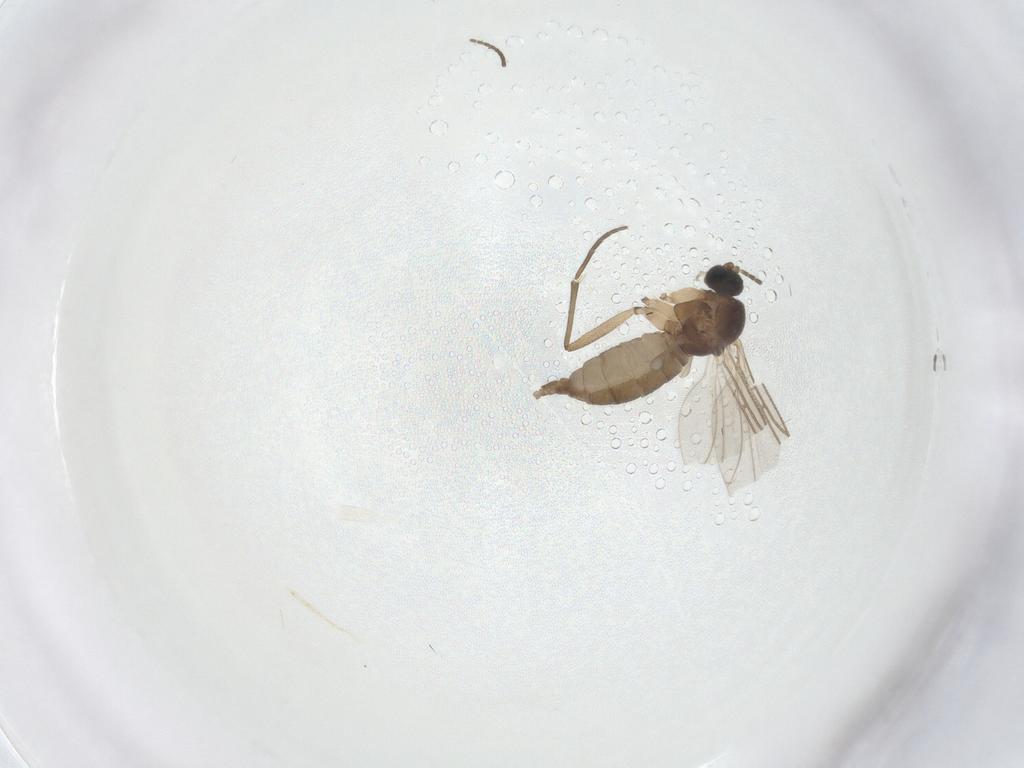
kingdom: Animalia
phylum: Arthropoda
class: Insecta
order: Diptera
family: Sciaridae
